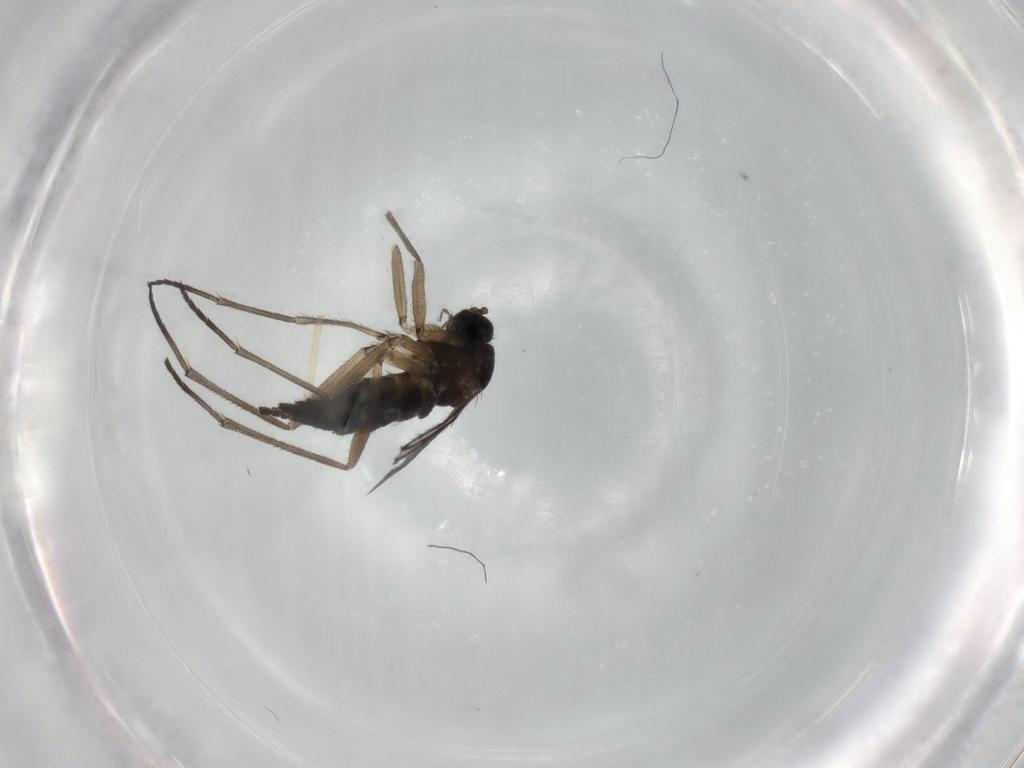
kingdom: Animalia
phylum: Arthropoda
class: Insecta
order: Diptera
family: Sciaridae
